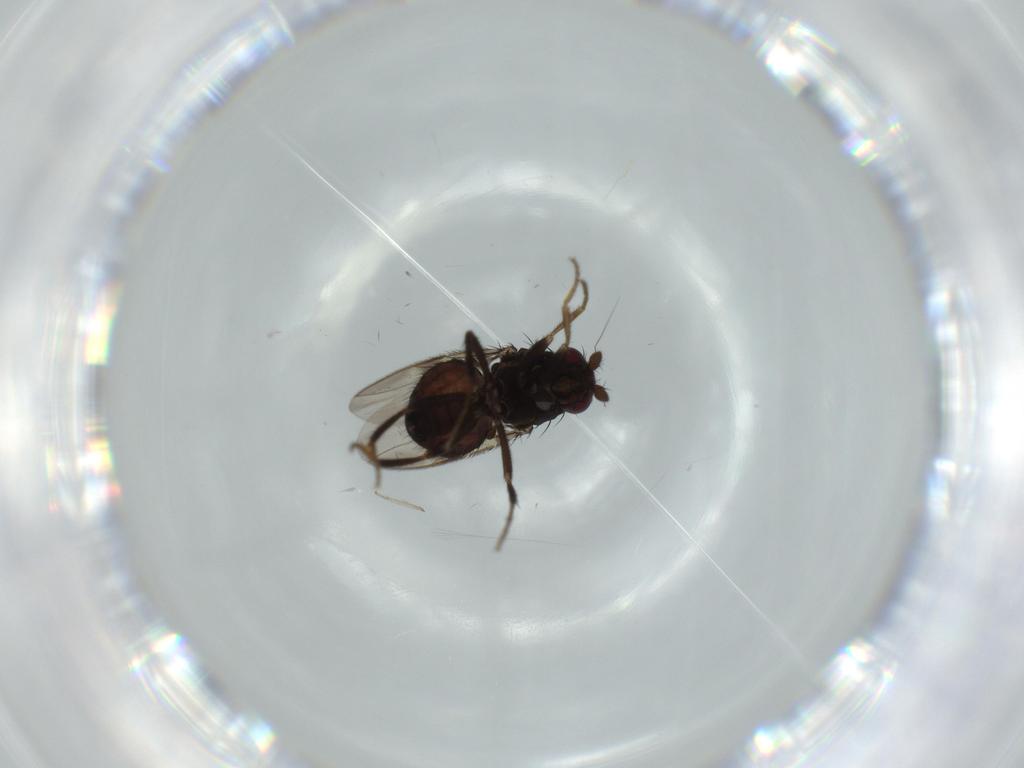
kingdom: Animalia
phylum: Arthropoda
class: Insecta
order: Diptera
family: Sphaeroceridae
